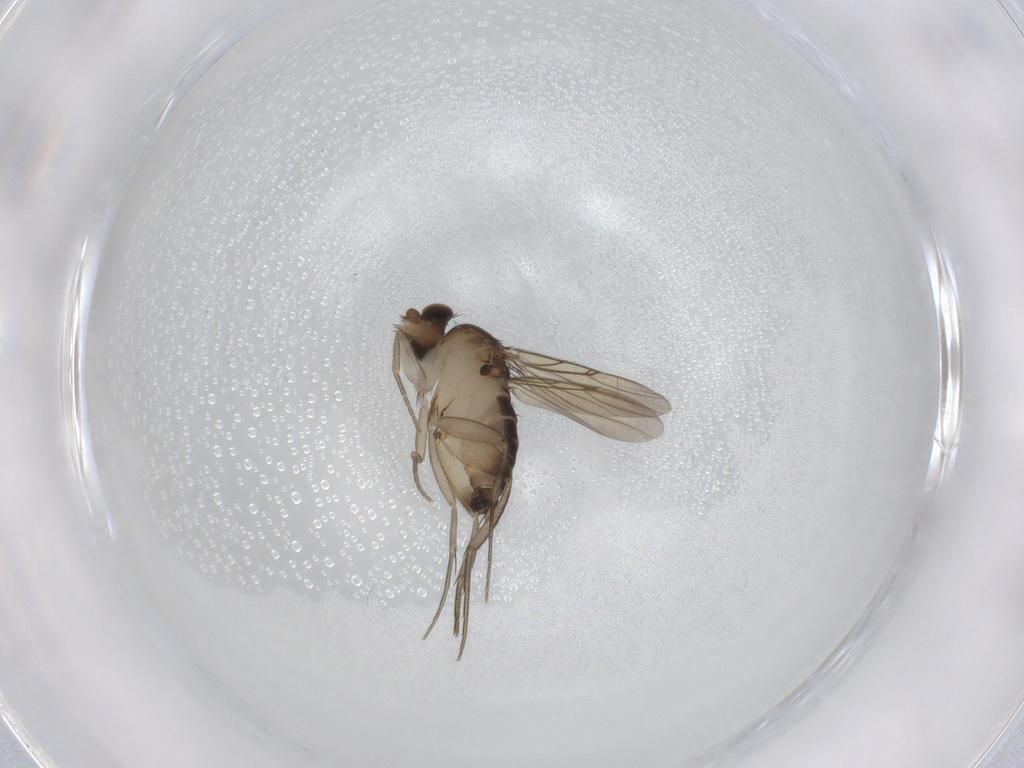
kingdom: Animalia
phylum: Arthropoda
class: Insecta
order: Diptera
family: Phoridae
